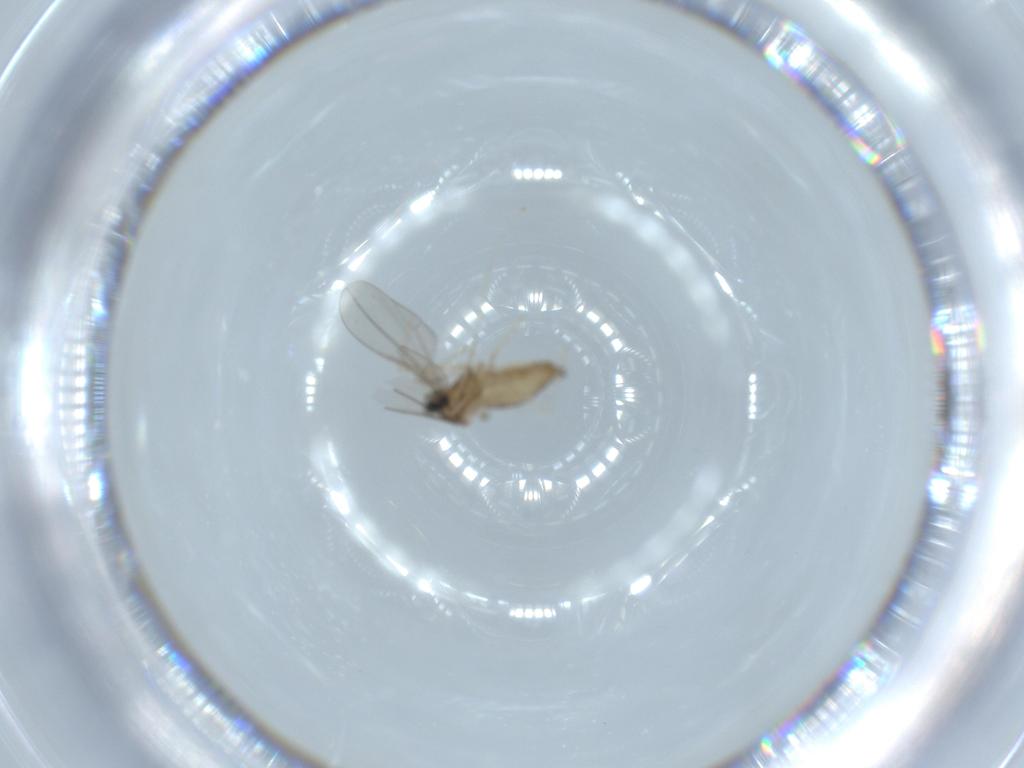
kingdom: Animalia
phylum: Arthropoda
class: Insecta
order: Diptera
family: Cecidomyiidae
